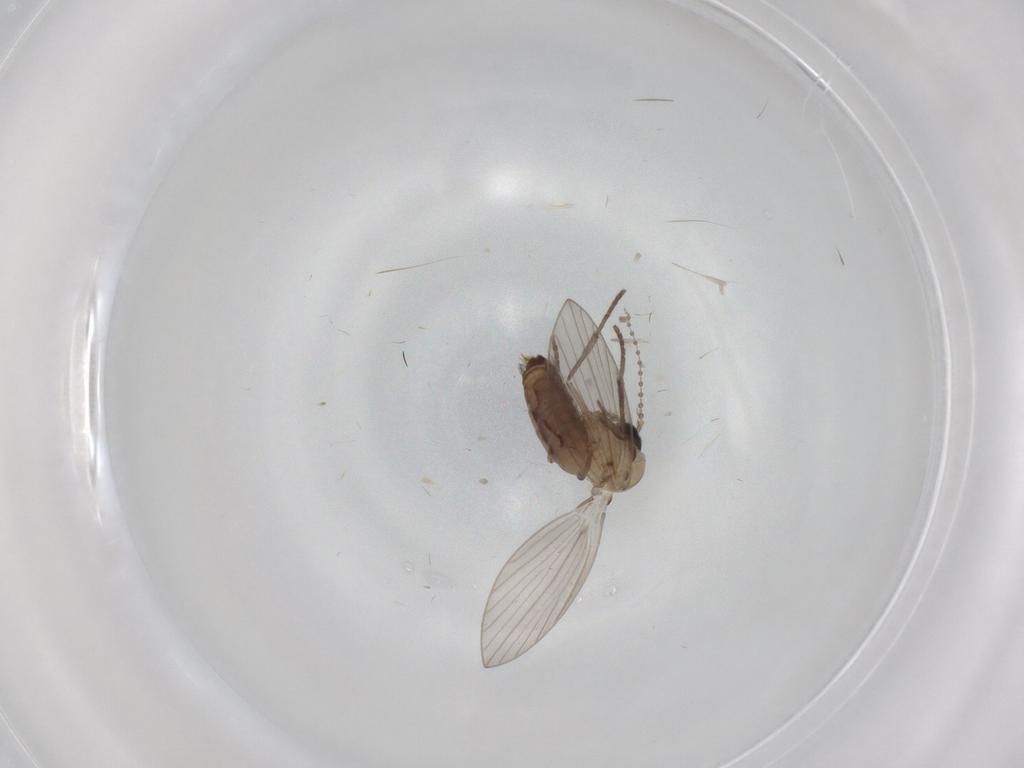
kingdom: Animalia
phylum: Arthropoda
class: Insecta
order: Diptera
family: Psychodidae
